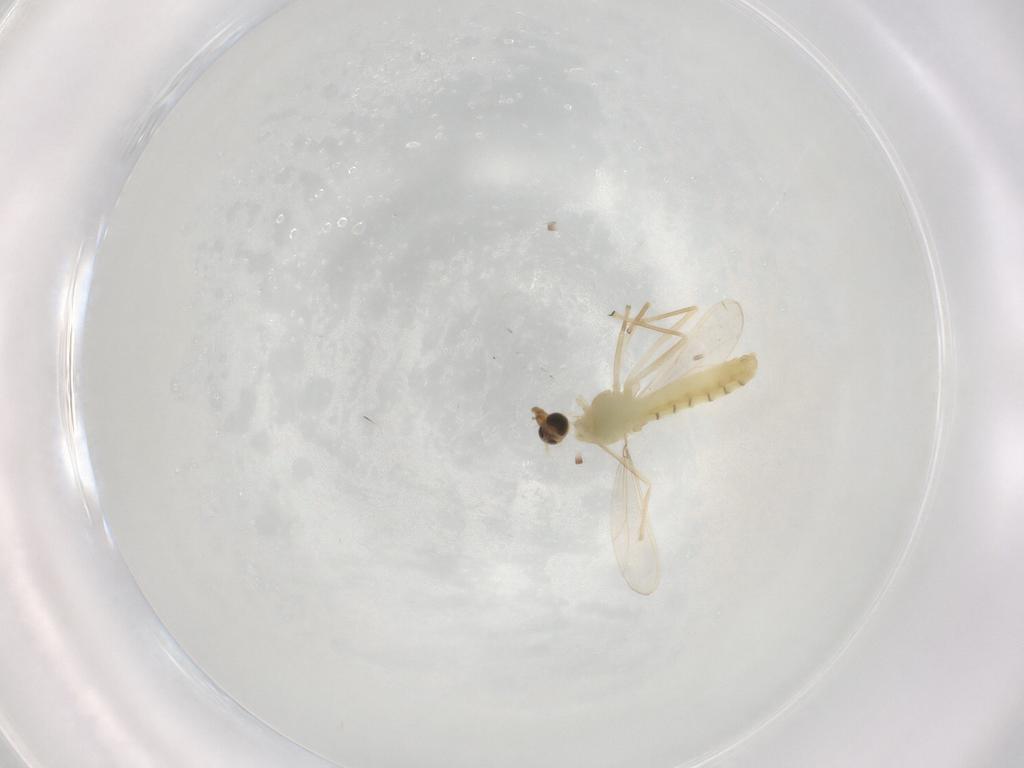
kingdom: Animalia
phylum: Arthropoda
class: Insecta
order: Diptera
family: Chironomidae
